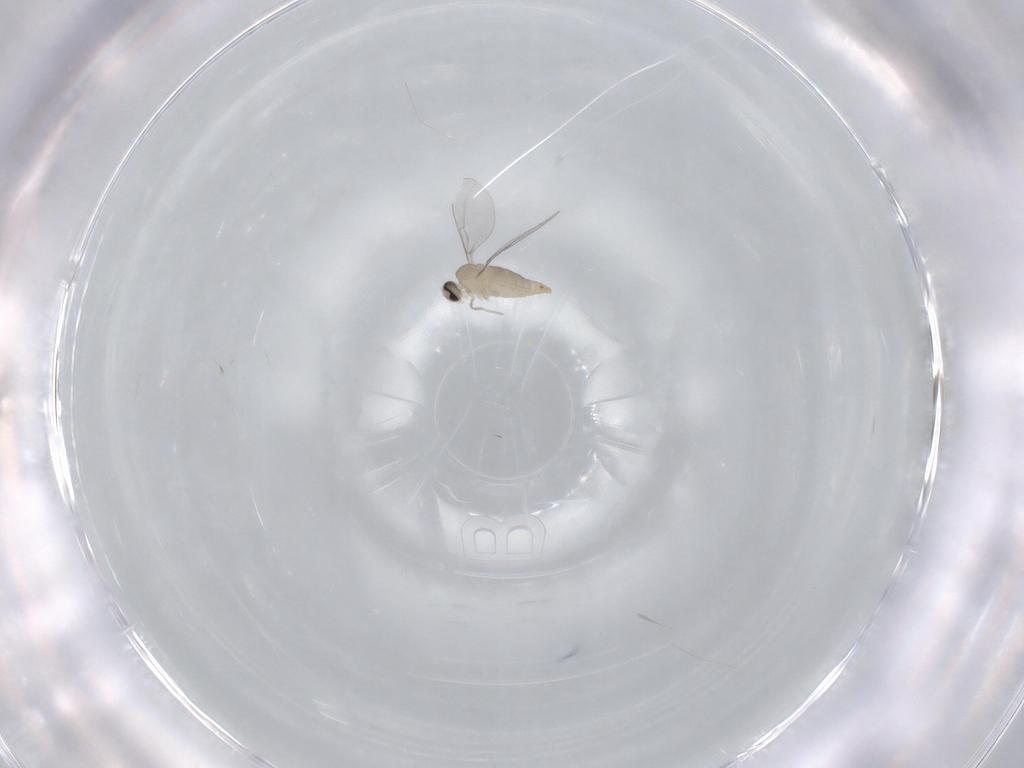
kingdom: Animalia
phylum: Arthropoda
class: Insecta
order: Diptera
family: Cecidomyiidae
